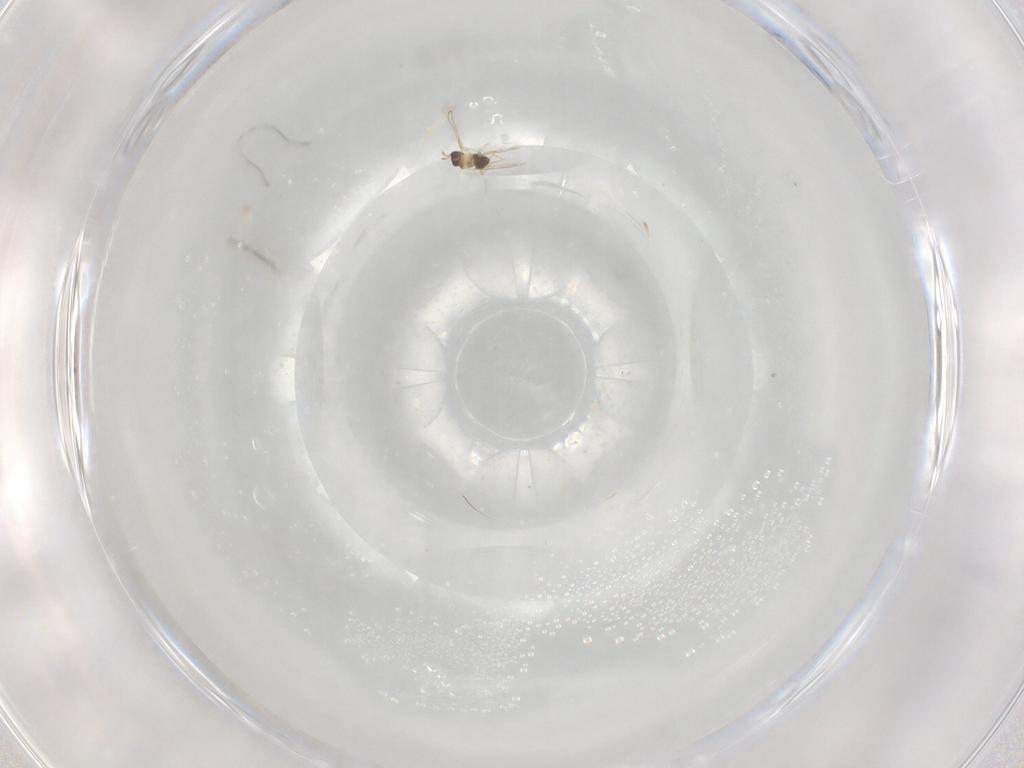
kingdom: Animalia
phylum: Arthropoda
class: Insecta
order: Hymenoptera
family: Mymaridae
